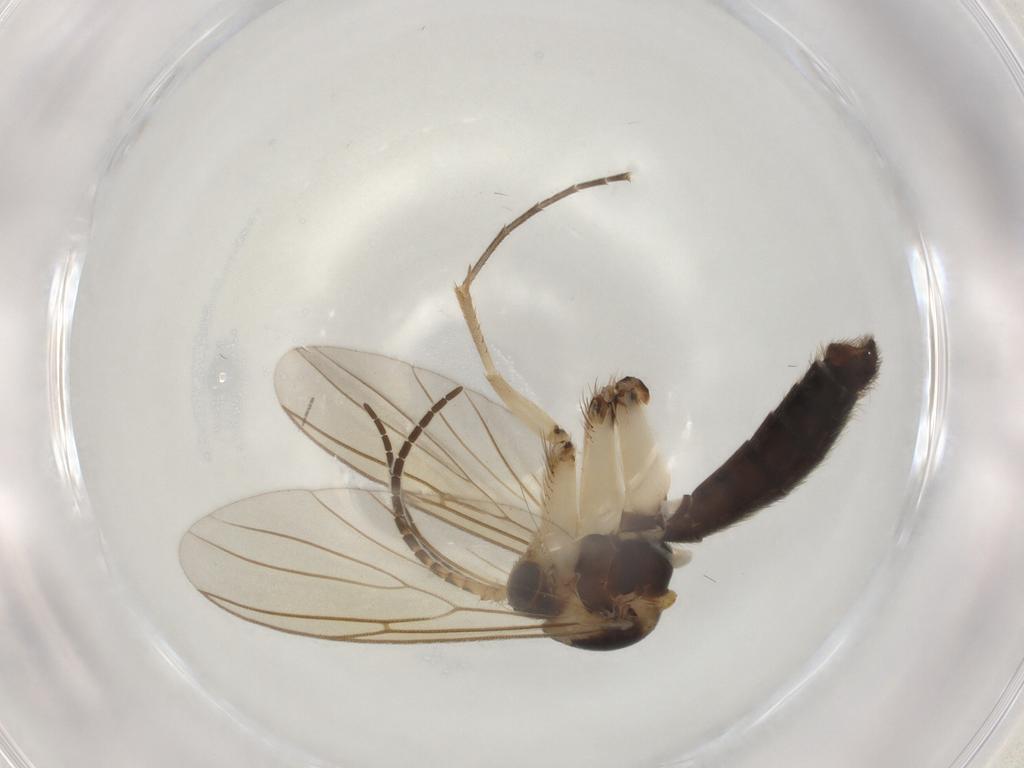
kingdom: Animalia
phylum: Arthropoda
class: Insecta
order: Diptera
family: Mycetophilidae
